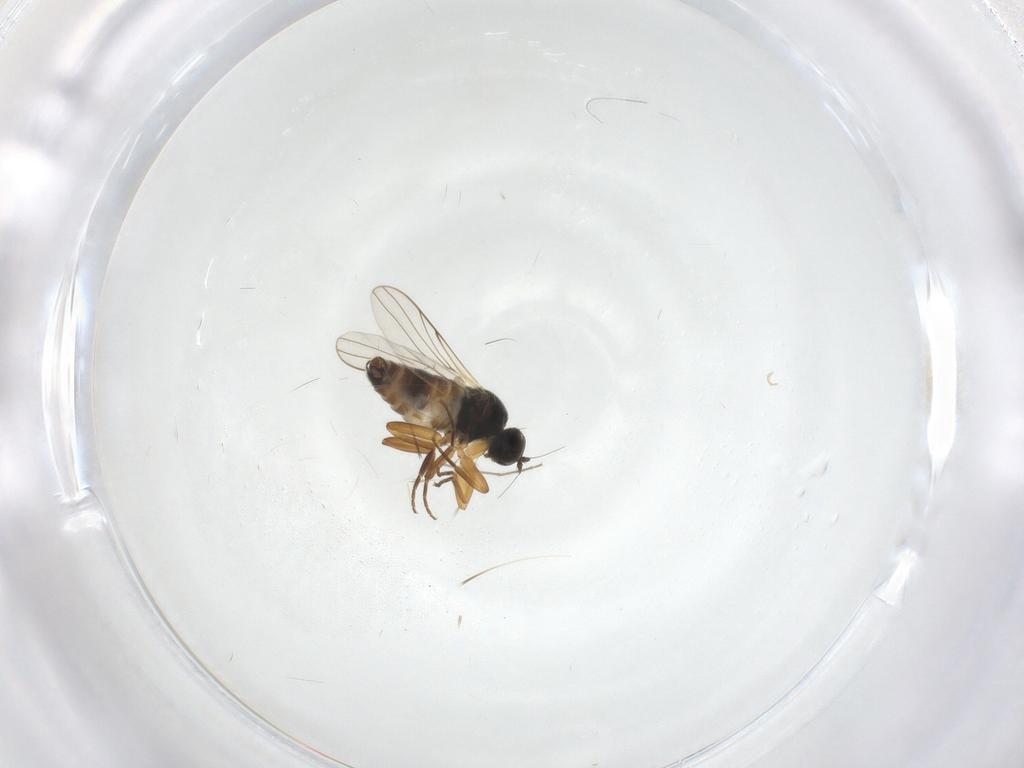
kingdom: Animalia
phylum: Arthropoda
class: Insecta
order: Diptera
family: Hybotidae
